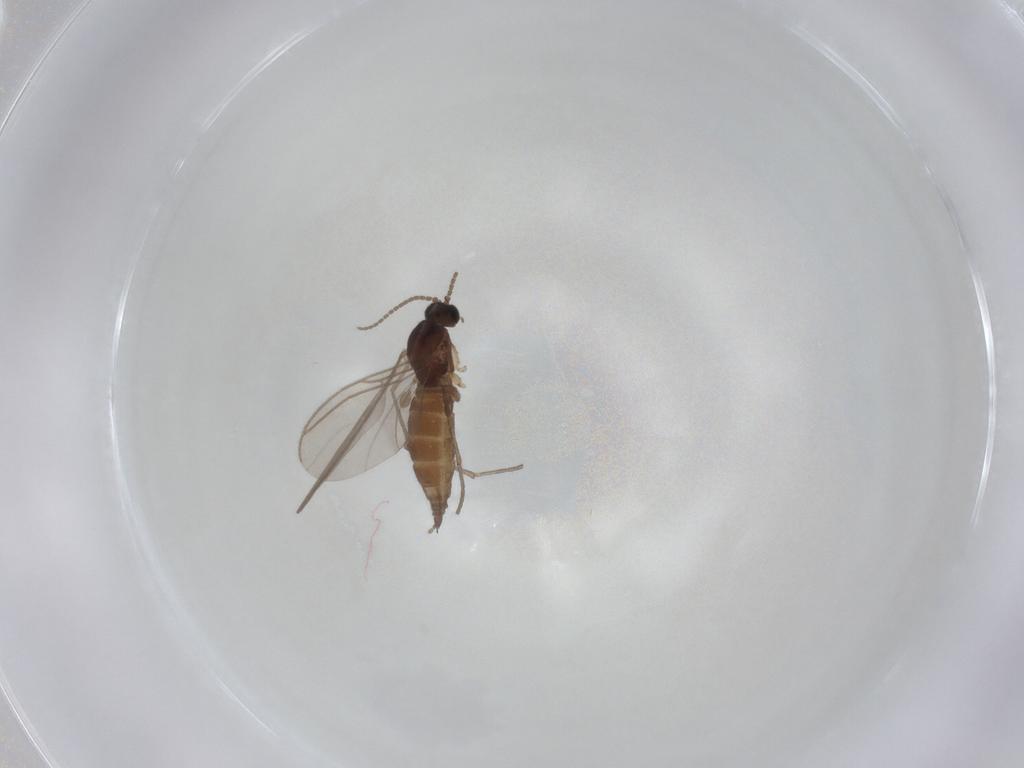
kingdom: Animalia
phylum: Arthropoda
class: Insecta
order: Diptera
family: Sciaridae
